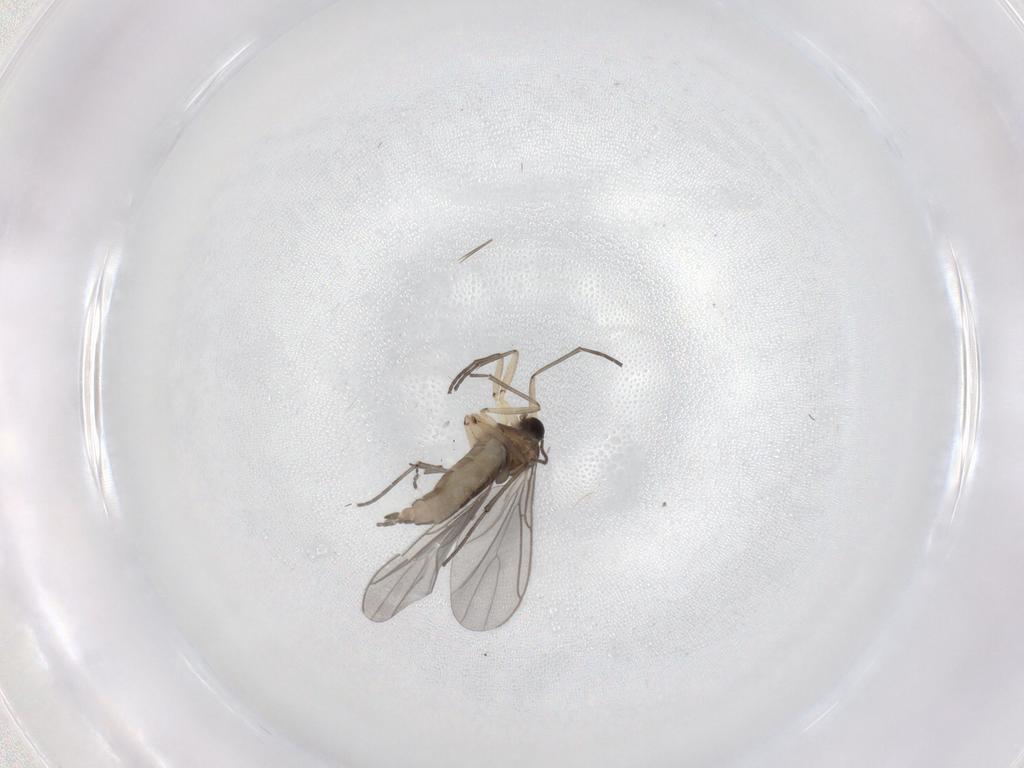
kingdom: Animalia
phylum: Arthropoda
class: Insecta
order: Diptera
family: Sciaridae
